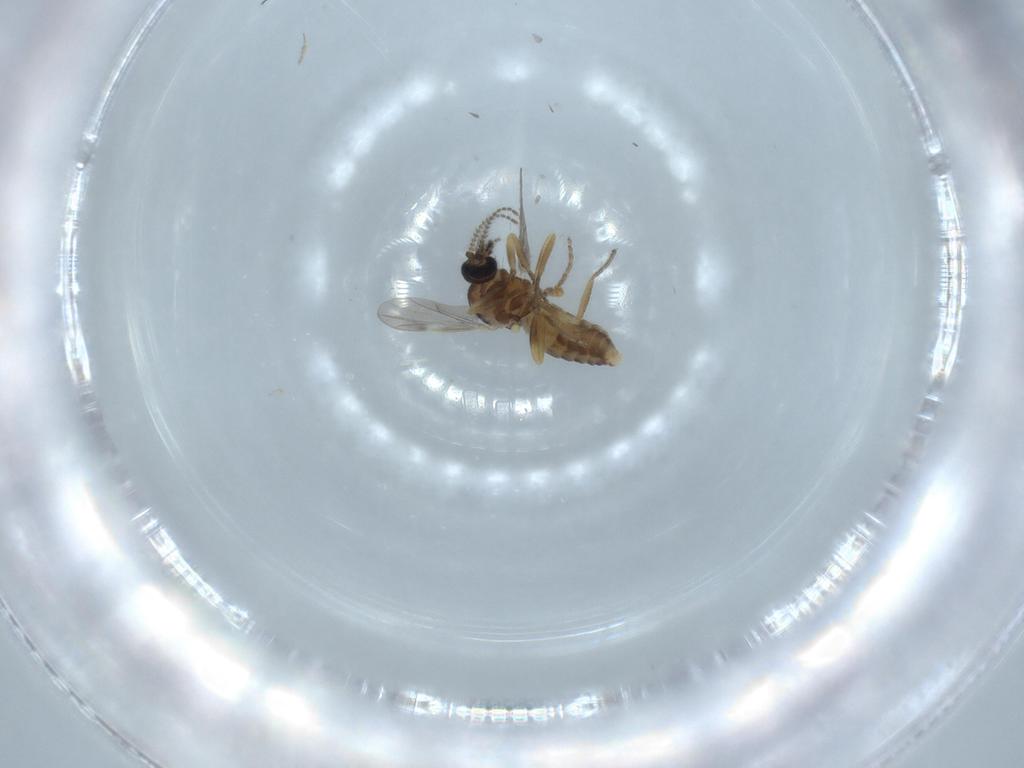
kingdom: Animalia
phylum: Arthropoda
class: Insecta
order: Diptera
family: Ceratopogonidae
